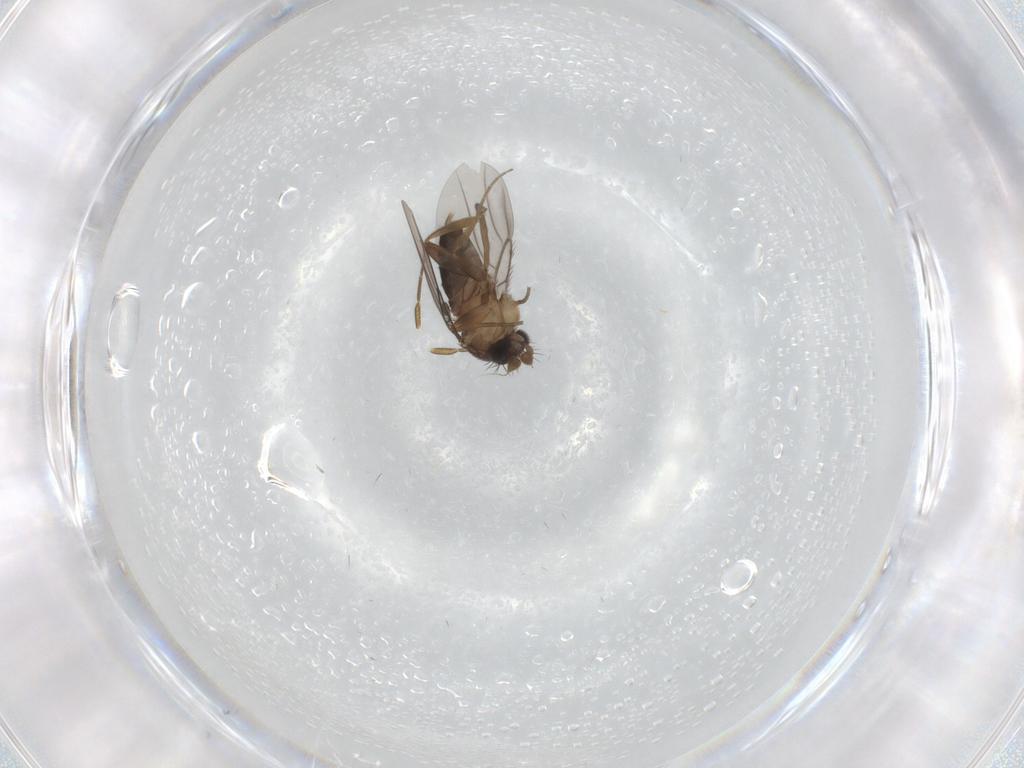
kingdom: Animalia
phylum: Arthropoda
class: Insecta
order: Diptera
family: Phoridae
